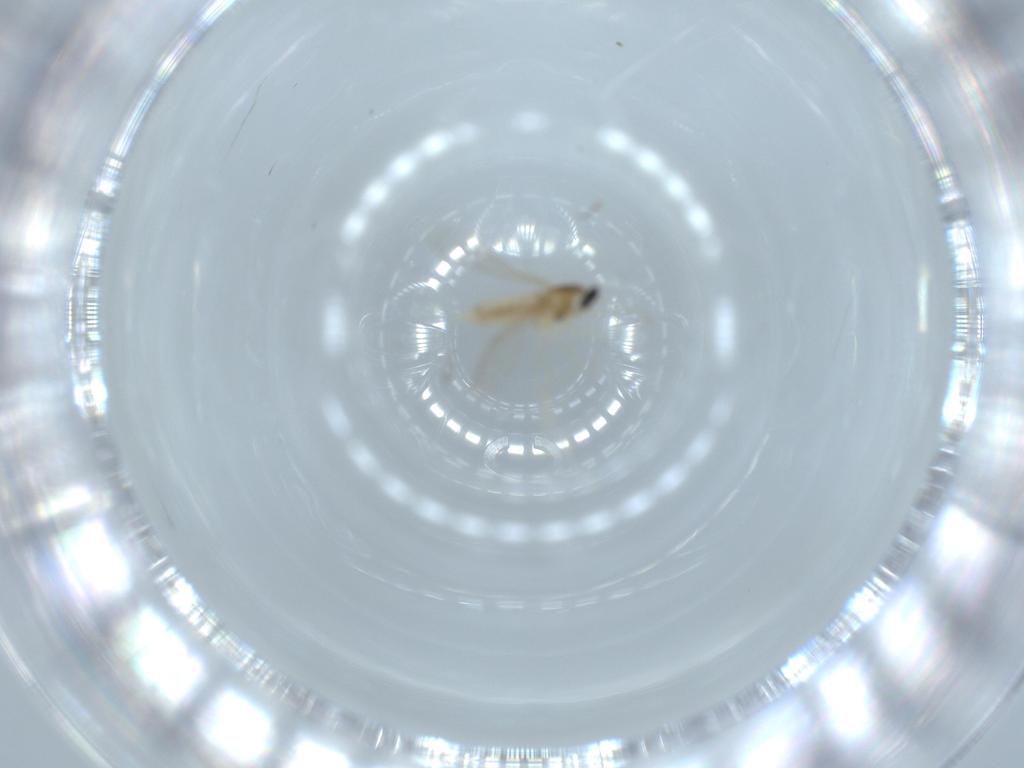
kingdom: Animalia
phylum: Arthropoda
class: Insecta
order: Diptera
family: Cecidomyiidae
